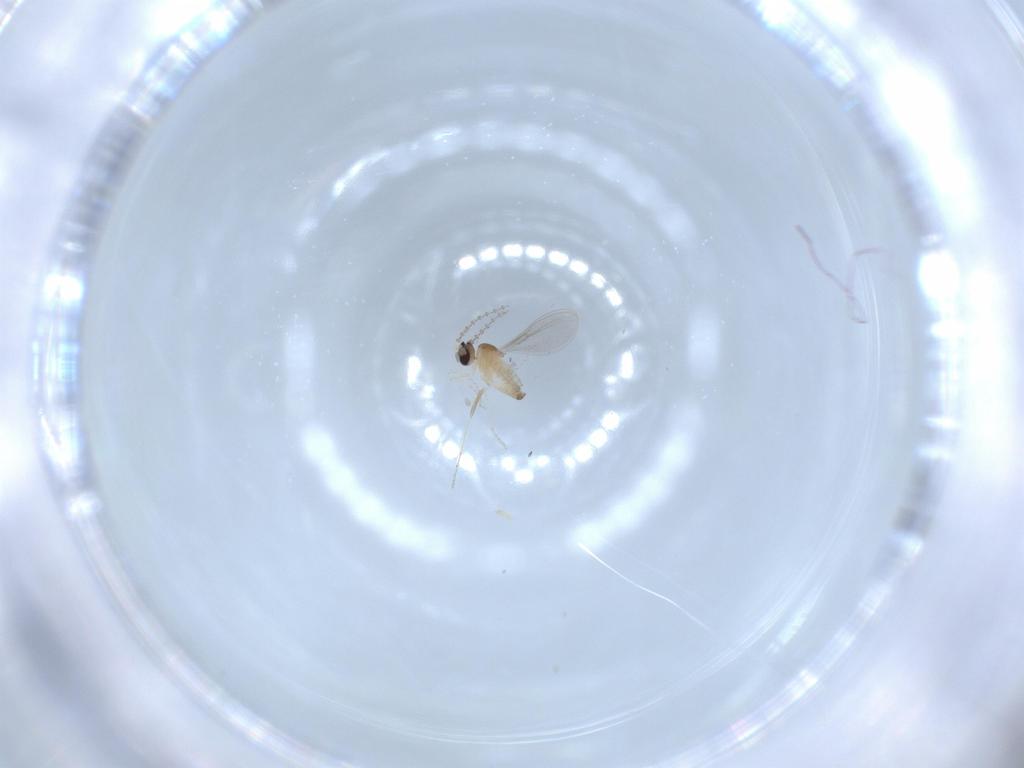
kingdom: Animalia
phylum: Arthropoda
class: Insecta
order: Diptera
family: Cecidomyiidae
